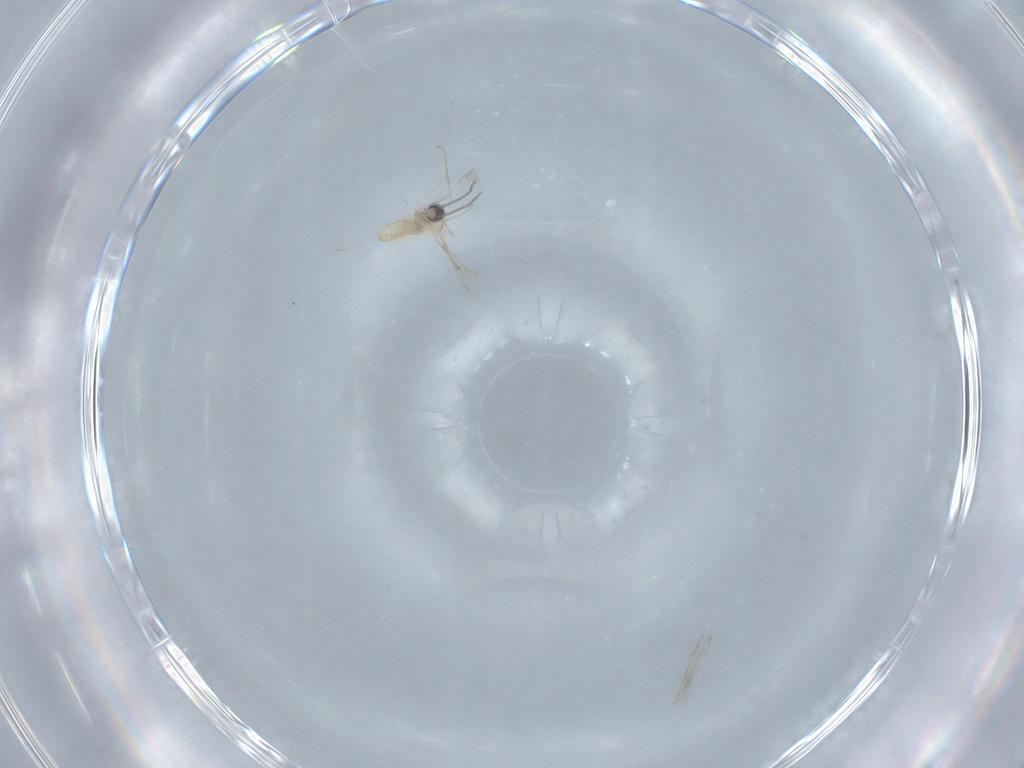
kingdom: Animalia
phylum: Arthropoda
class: Insecta
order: Diptera
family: Cecidomyiidae
